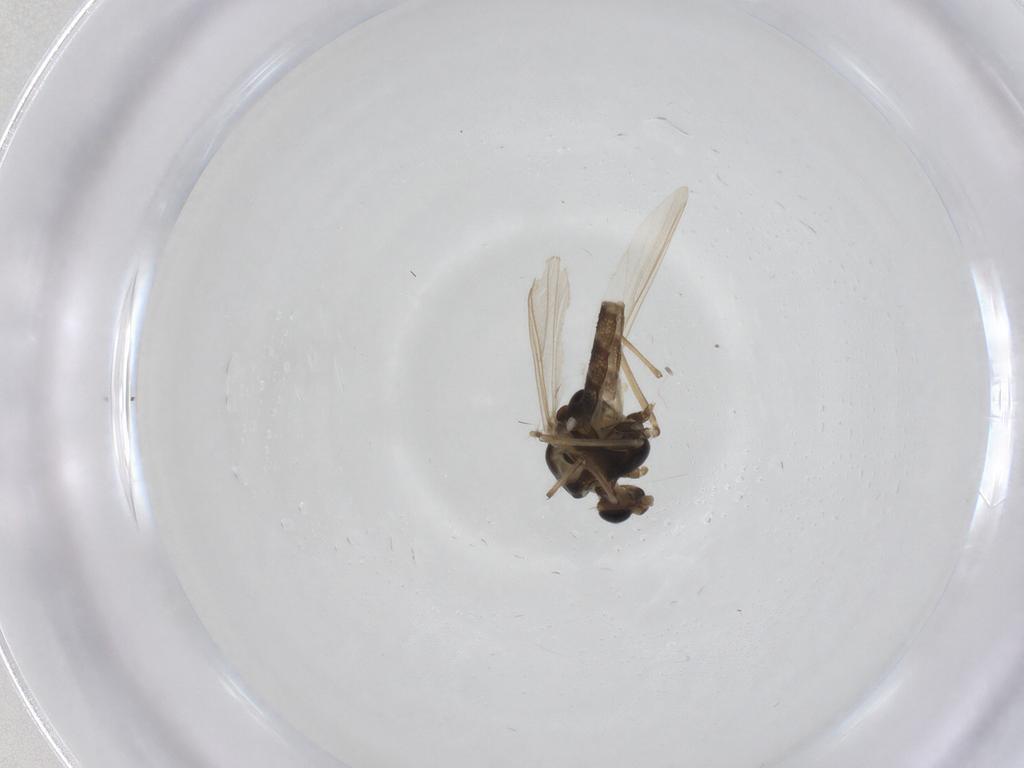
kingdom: Animalia
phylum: Arthropoda
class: Insecta
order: Diptera
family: Chironomidae
